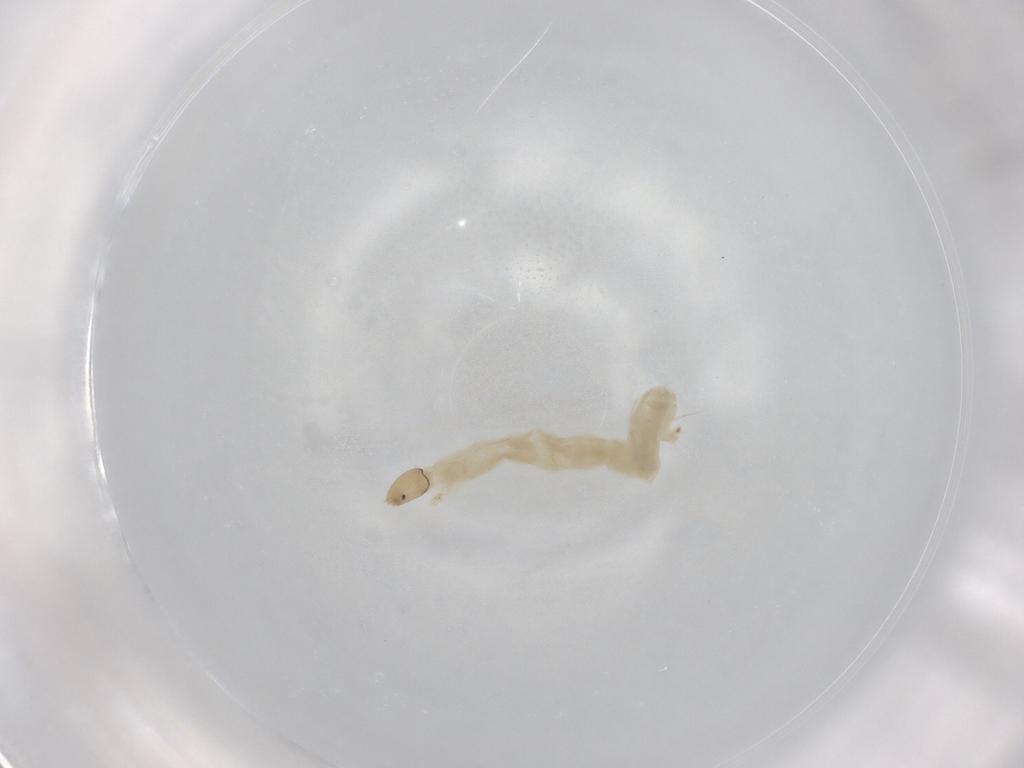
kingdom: Animalia
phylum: Arthropoda
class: Insecta
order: Diptera
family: Chironomidae
